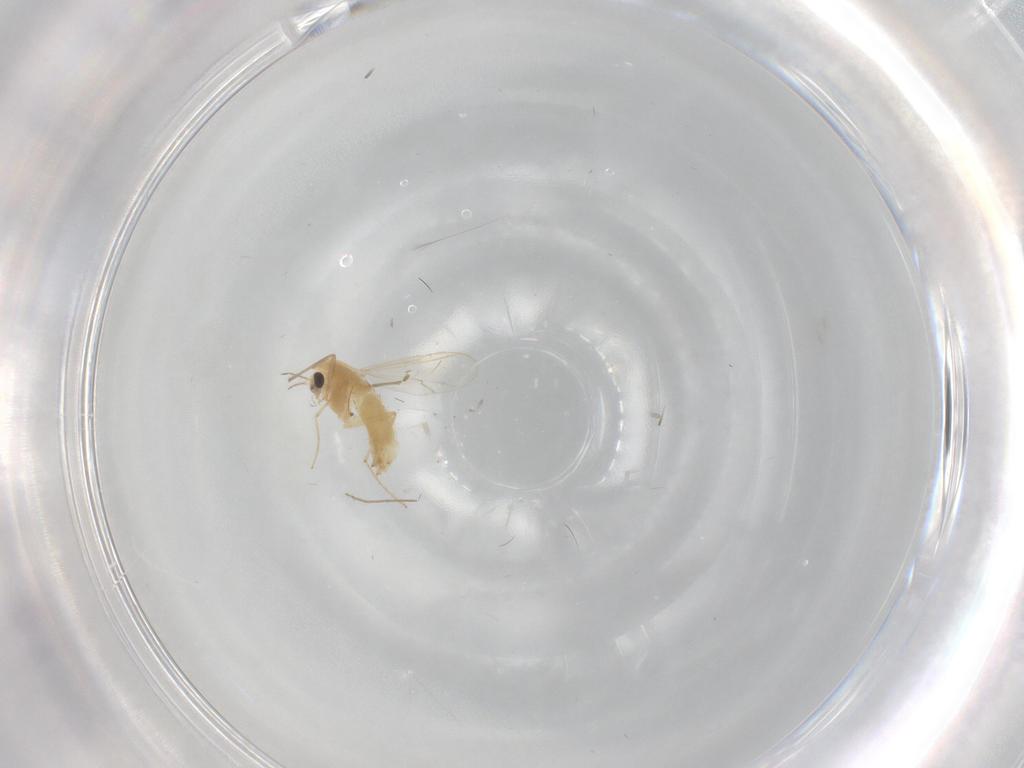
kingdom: Animalia
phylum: Arthropoda
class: Insecta
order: Diptera
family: Chironomidae
